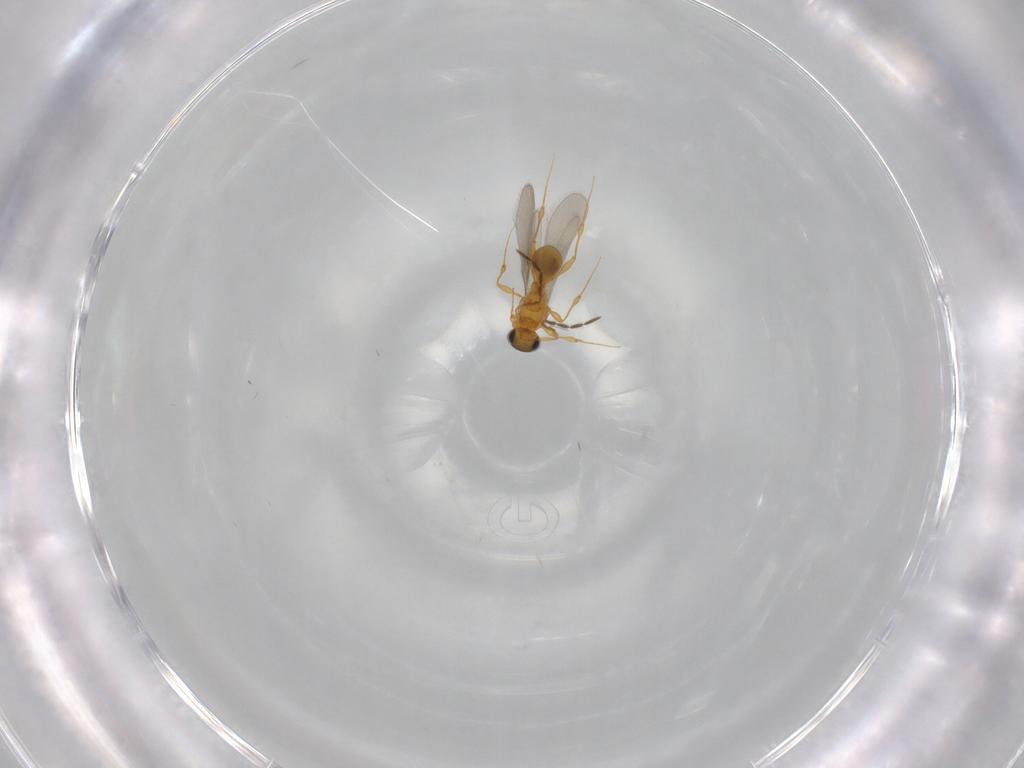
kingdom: Animalia
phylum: Arthropoda
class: Insecta
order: Hymenoptera
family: Platygastridae
